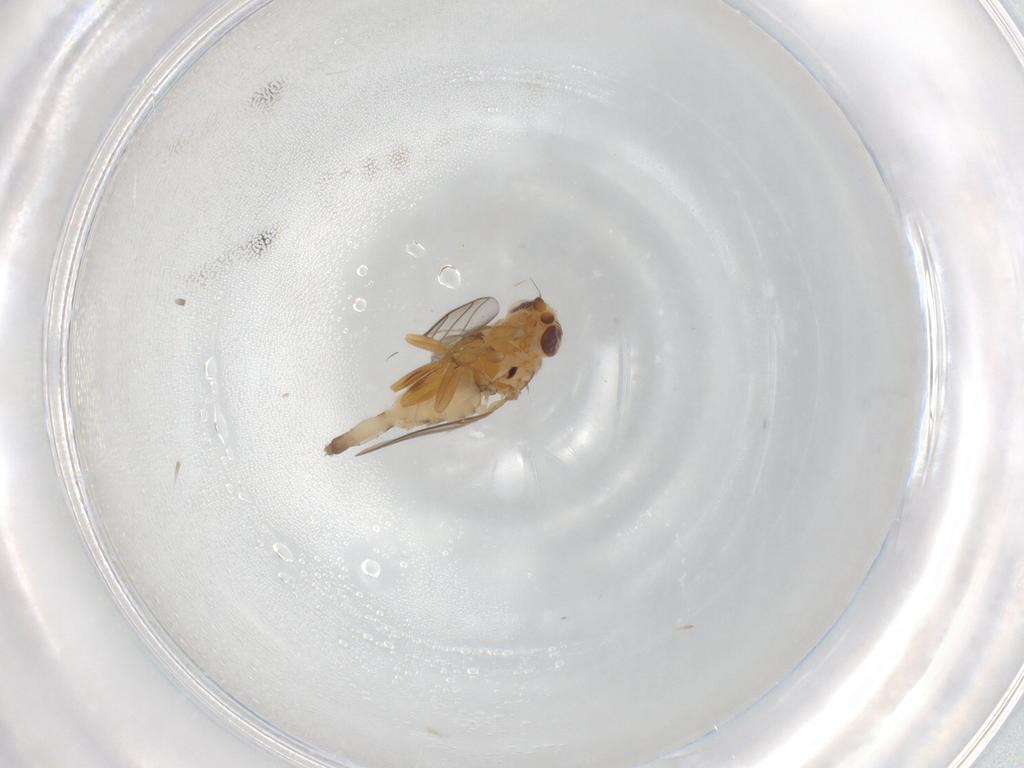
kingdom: Animalia
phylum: Arthropoda
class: Insecta
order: Diptera
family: Chloropidae
